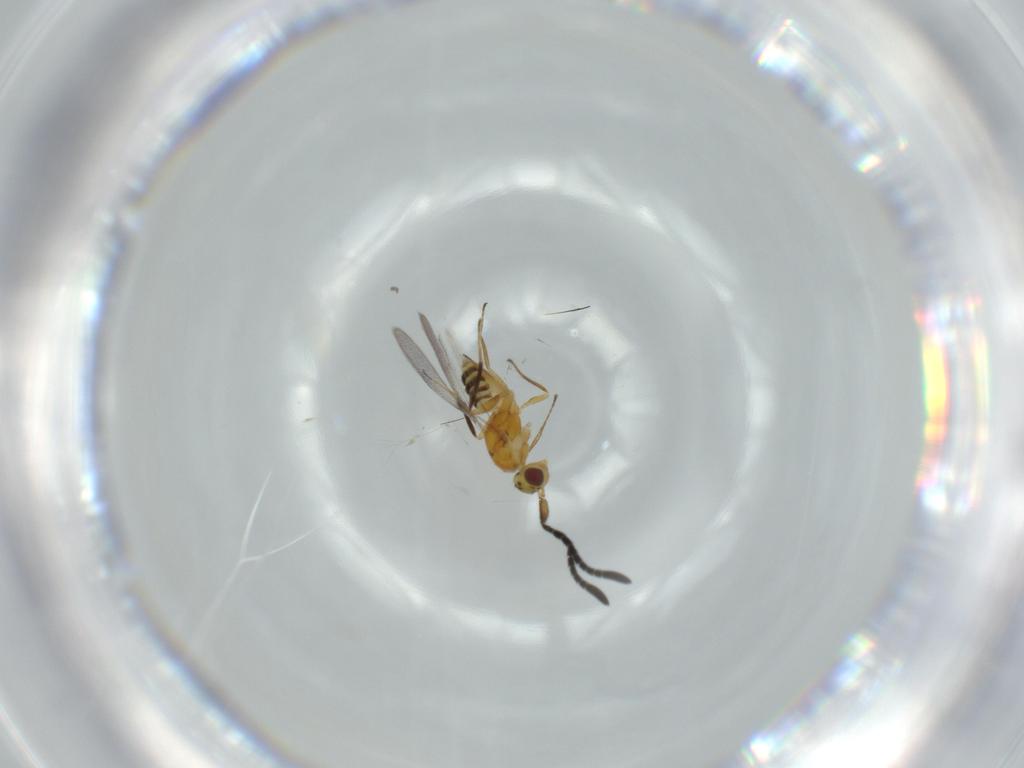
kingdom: Animalia
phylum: Arthropoda
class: Insecta
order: Hymenoptera
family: Mymaridae
